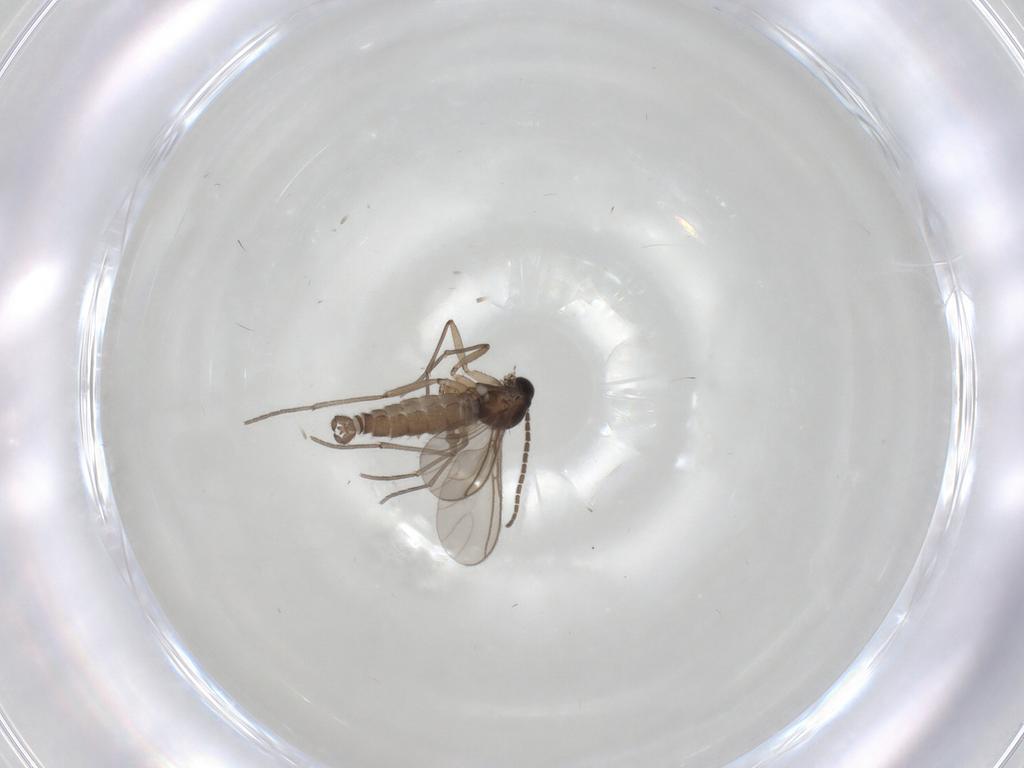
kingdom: Animalia
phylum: Arthropoda
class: Insecta
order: Diptera
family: Sciaridae
